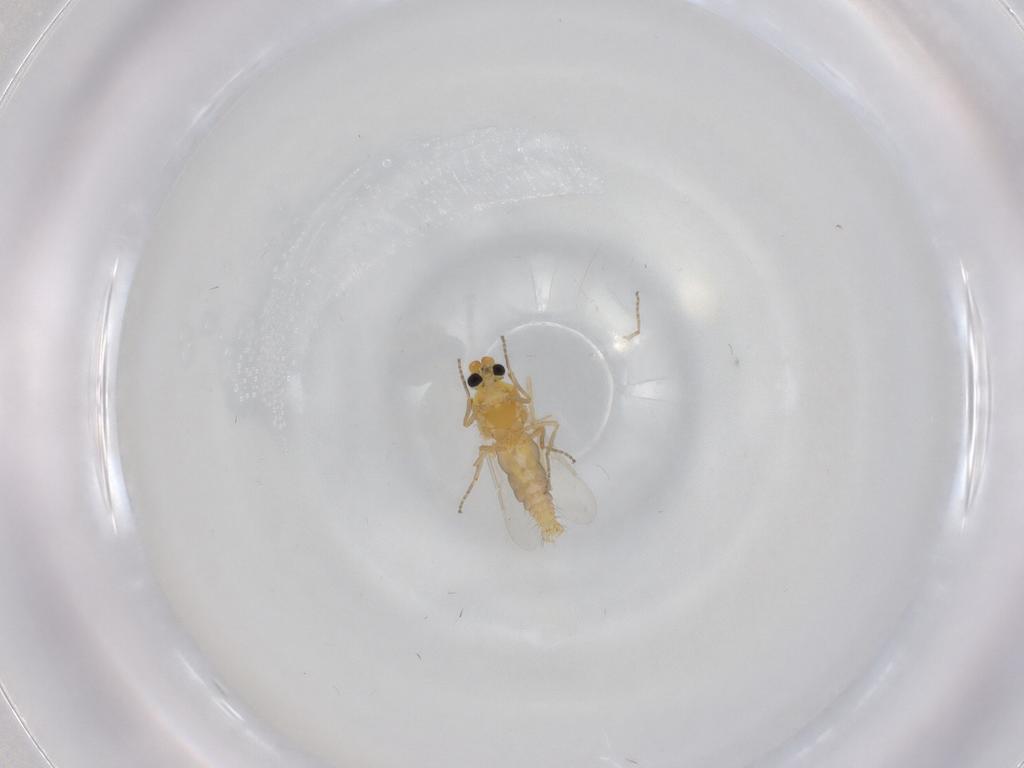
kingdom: Animalia
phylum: Arthropoda
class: Insecta
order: Diptera
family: Ceratopogonidae
